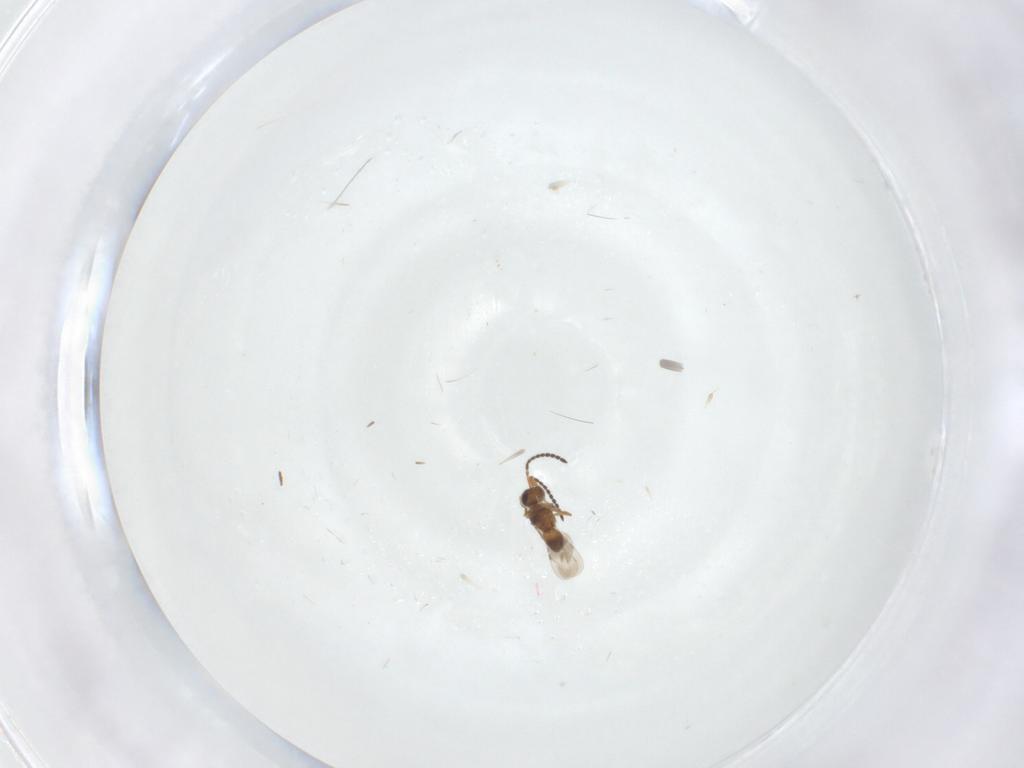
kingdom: Animalia
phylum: Arthropoda
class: Insecta
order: Hymenoptera
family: Ceraphronidae
